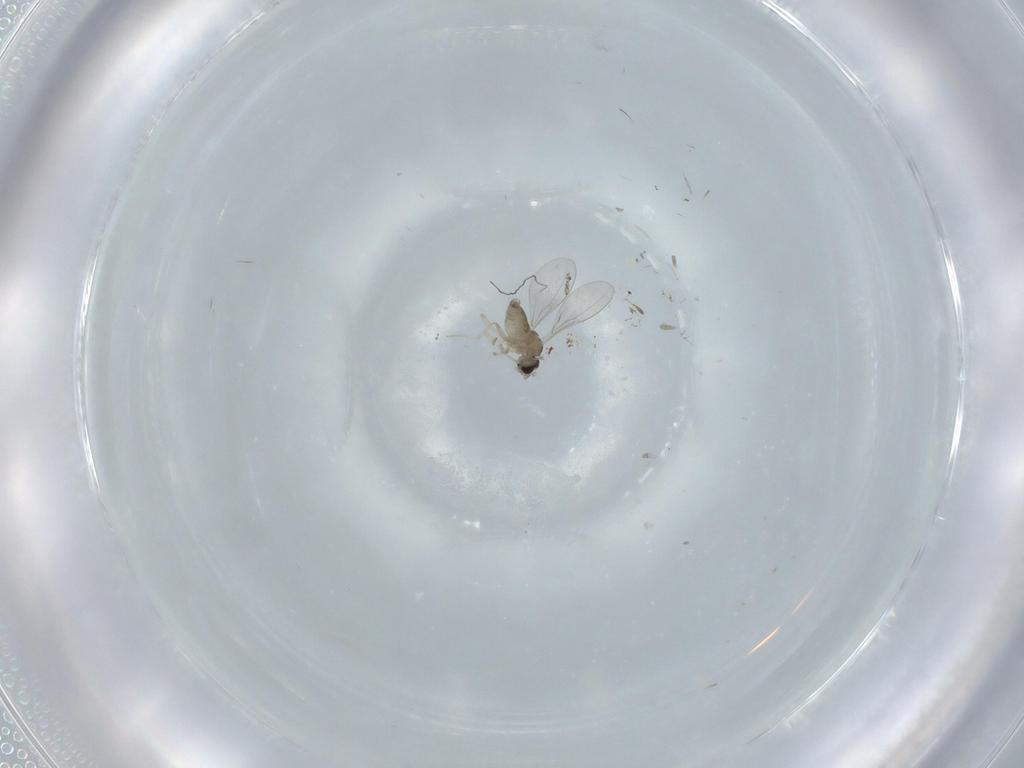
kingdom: Animalia
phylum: Arthropoda
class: Insecta
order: Diptera
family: Cecidomyiidae
